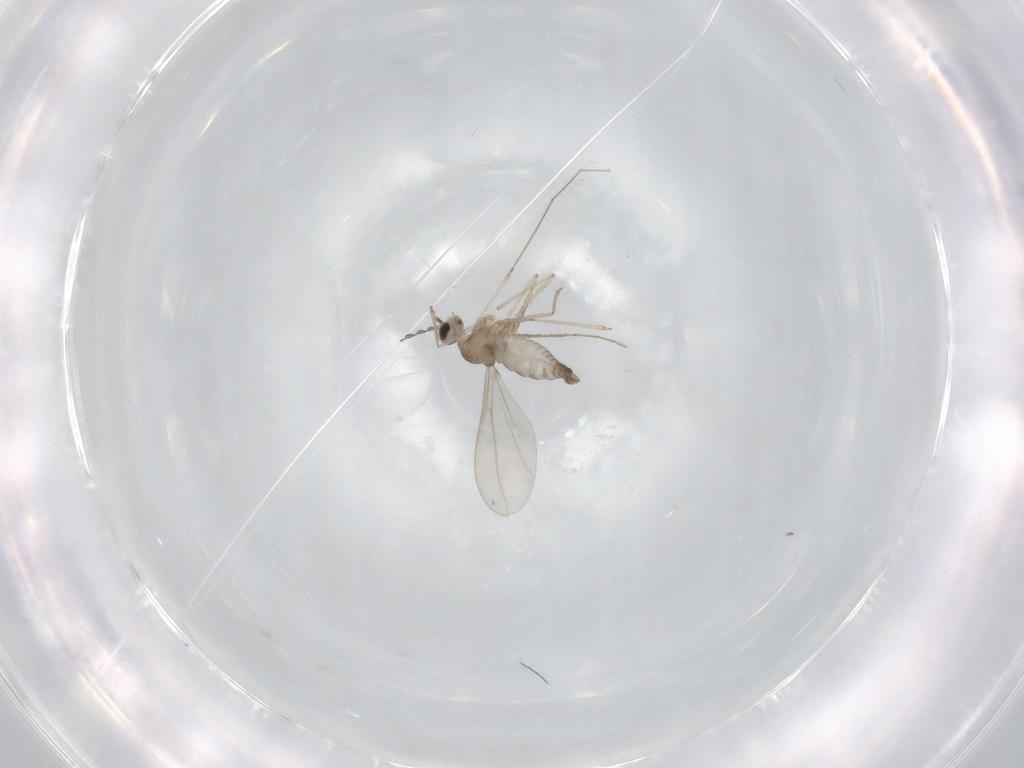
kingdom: Animalia
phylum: Arthropoda
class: Insecta
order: Diptera
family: Cecidomyiidae
